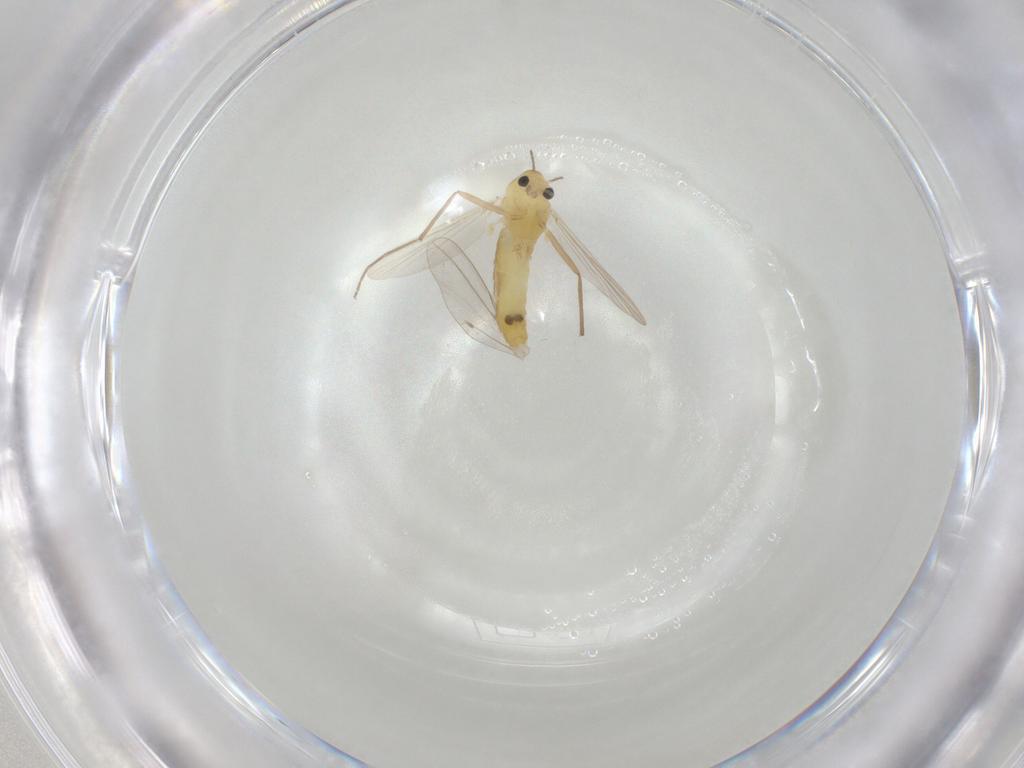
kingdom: Animalia
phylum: Arthropoda
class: Insecta
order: Diptera
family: Chironomidae
